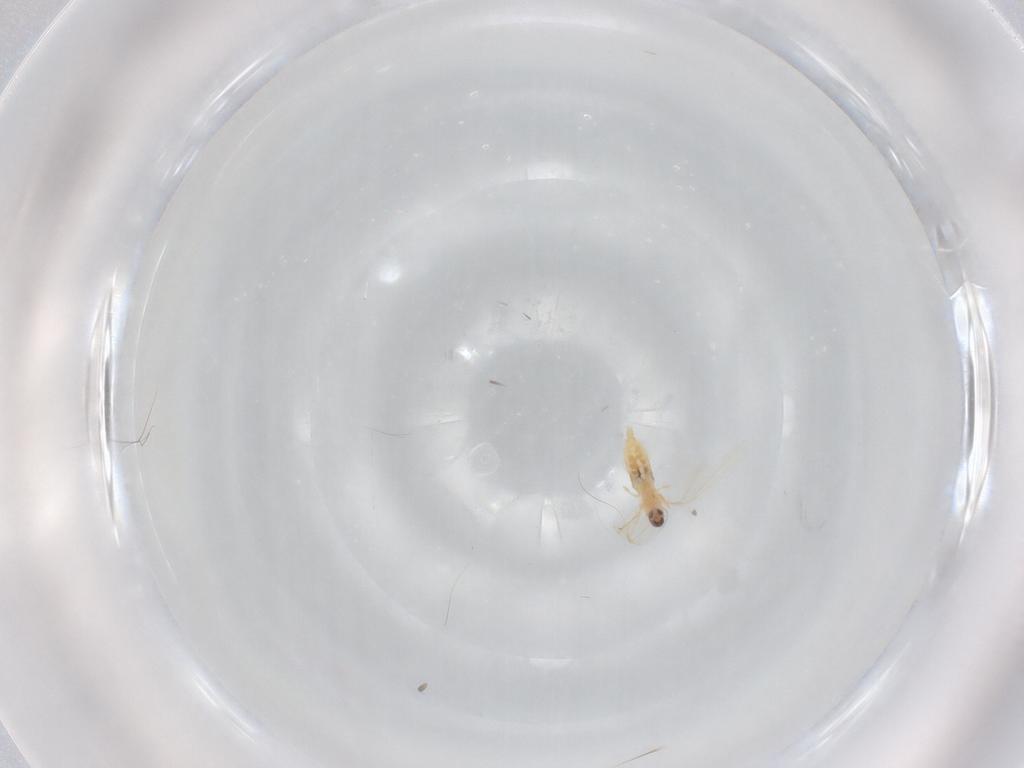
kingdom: Animalia
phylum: Arthropoda
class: Insecta
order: Diptera
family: Cecidomyiidae
